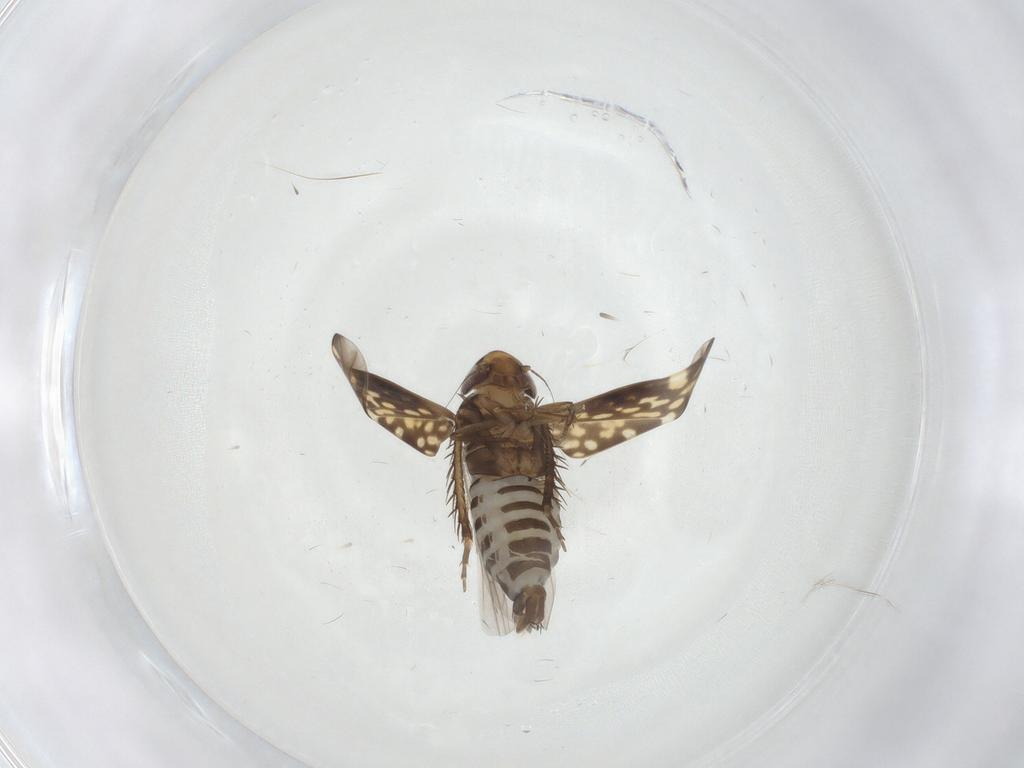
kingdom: Animalia
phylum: Arthropoda
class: Insecta
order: Hemiptera
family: Cicadellidae
